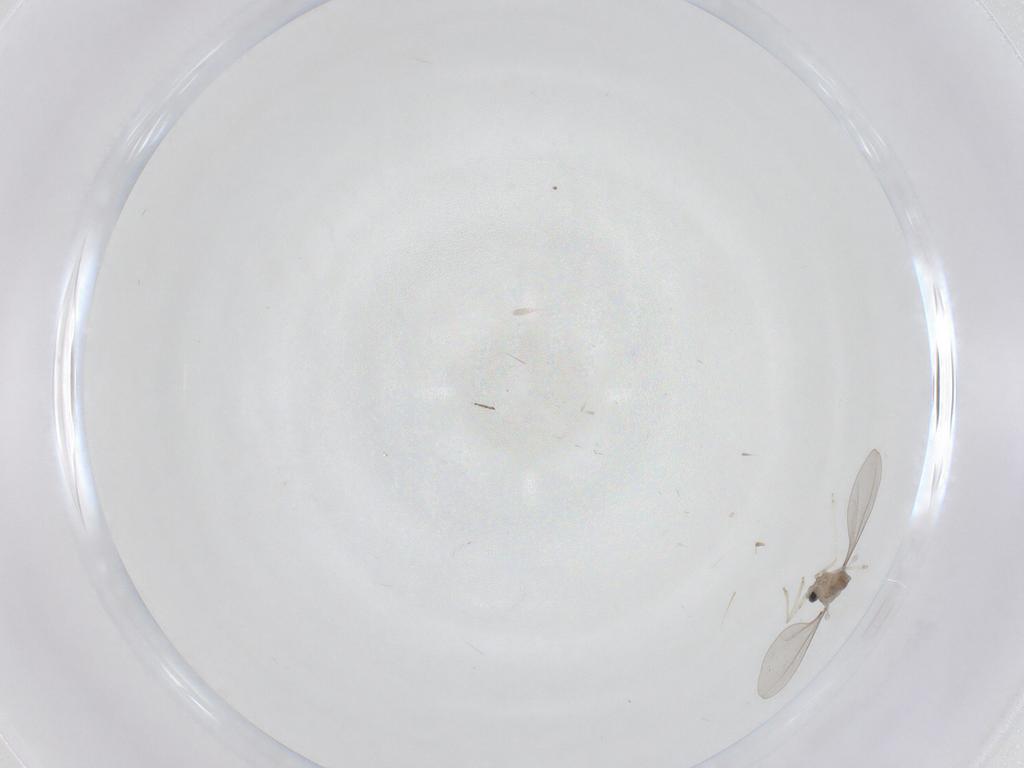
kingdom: Animalia
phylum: Arthropoda
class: Insecta
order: Diptera
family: Cecidomyiidae
